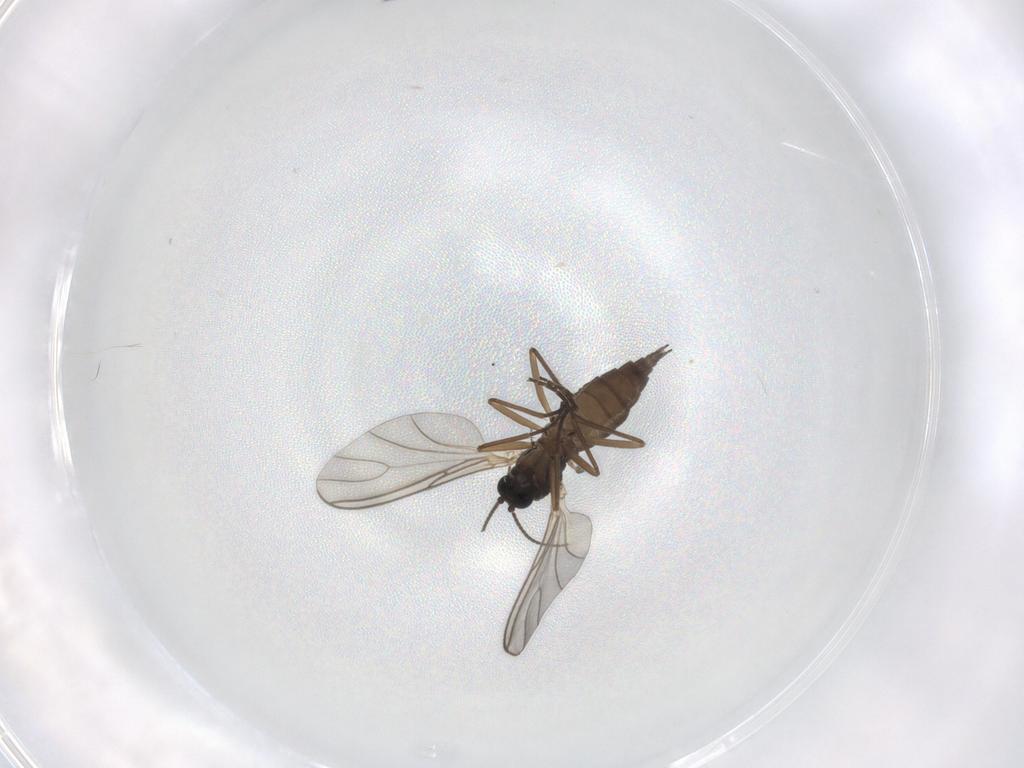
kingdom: Animalia
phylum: Arthropoda
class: Insecta
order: Diptera
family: Sciaridae
